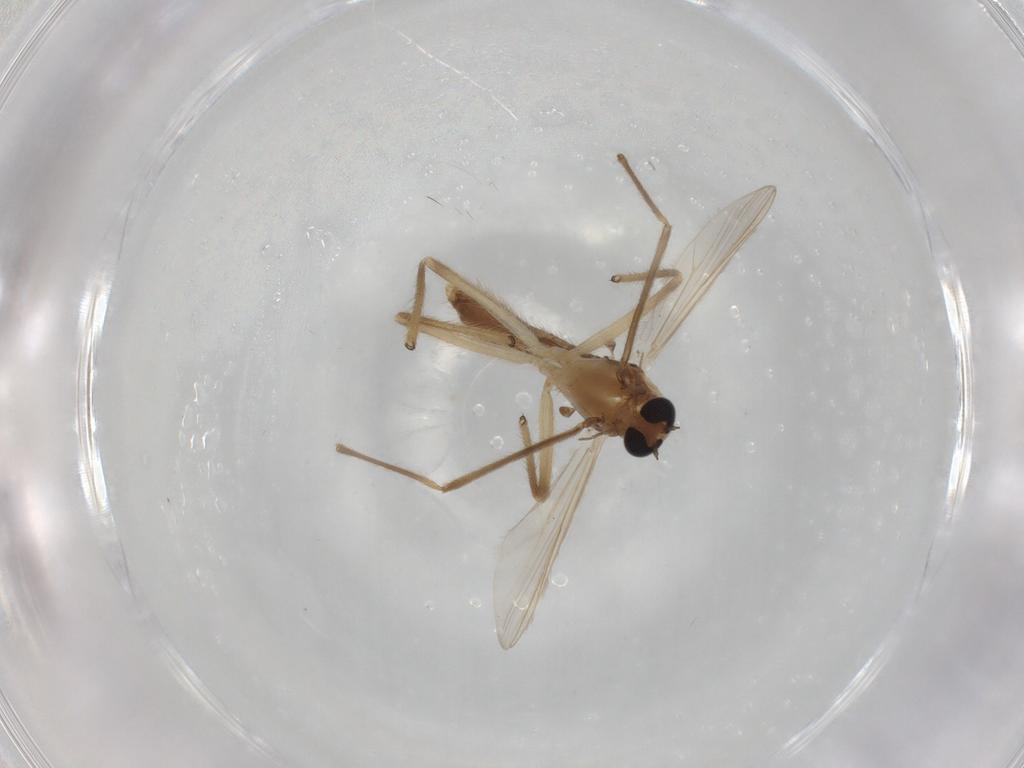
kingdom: Animalia
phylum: Arthropoda
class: Insecta
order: Diptera
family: Chironomidae
